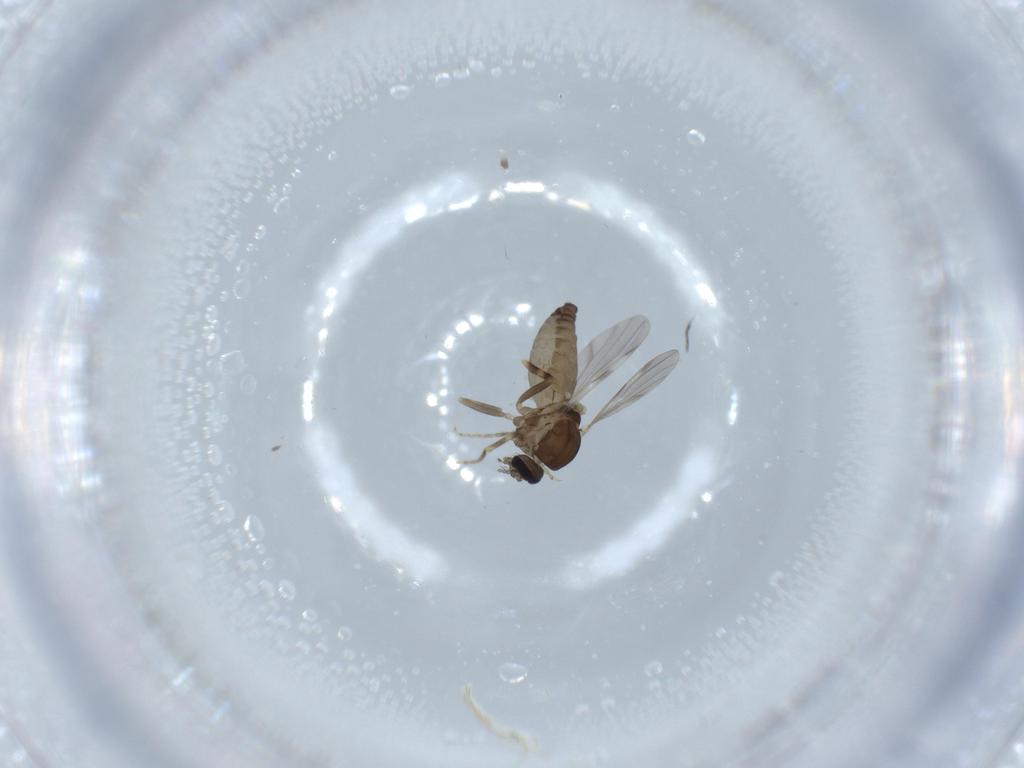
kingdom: Animalia
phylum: Arthropoda
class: Insecta
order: Diptera
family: Ceratopogonidae
